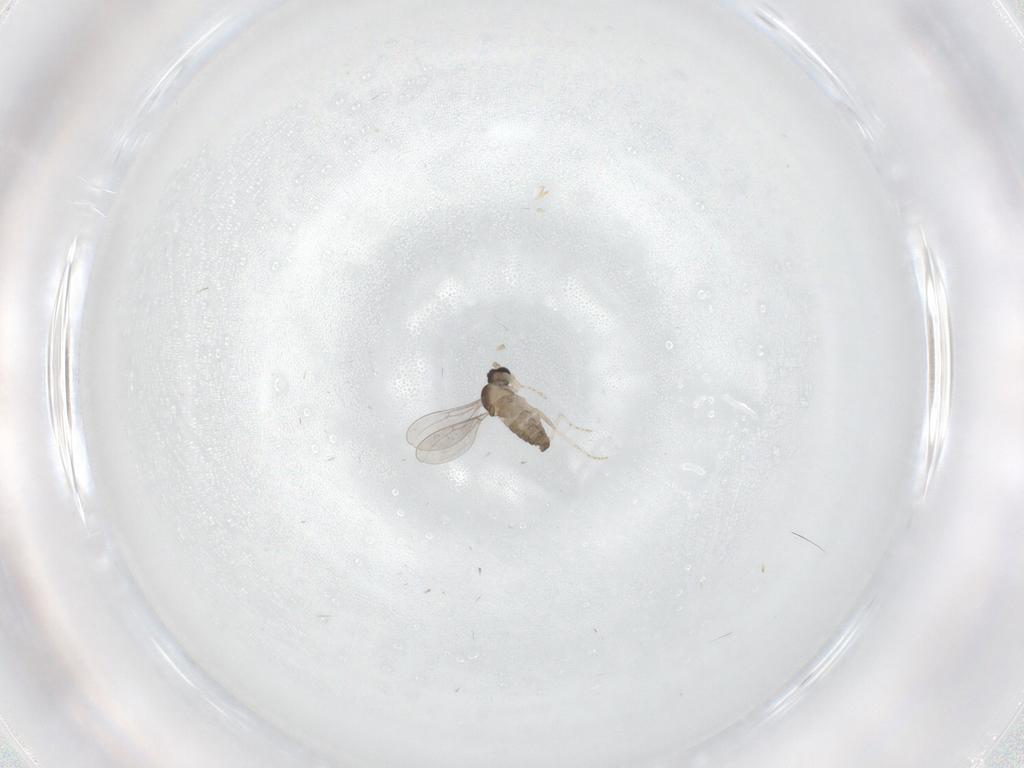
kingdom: Animalia
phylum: Arthropoda
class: Insecta
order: Diptera
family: Cecidomyiidae
